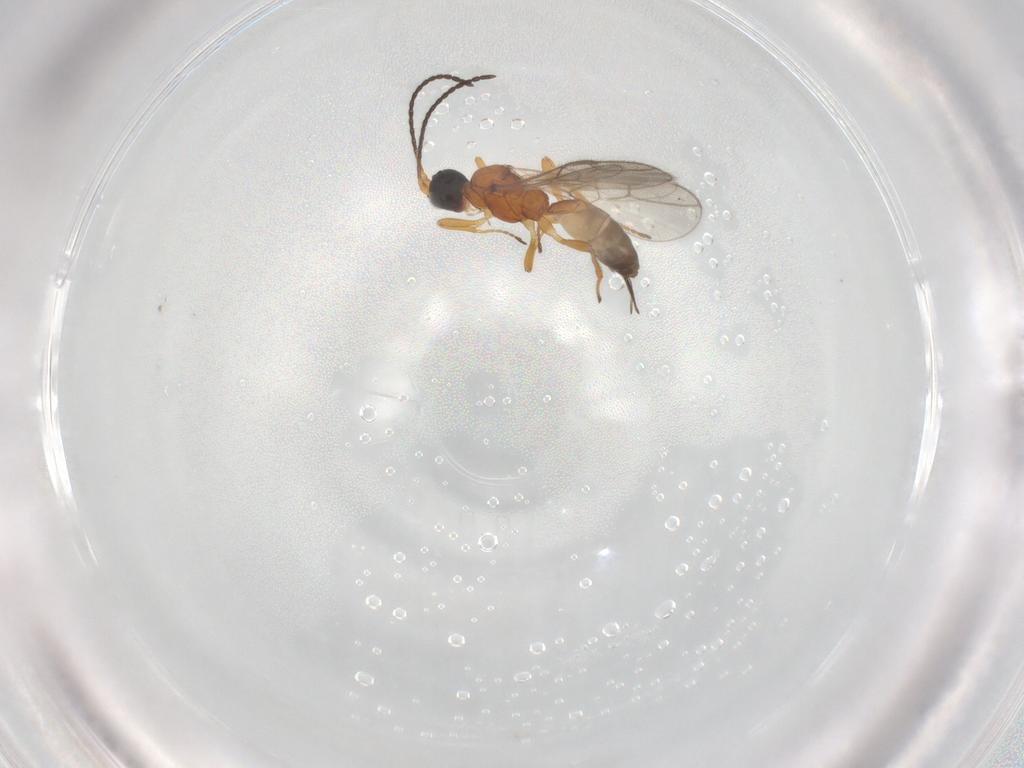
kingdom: Animalia
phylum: Arthropoda
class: Insecta
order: Hymenoptera
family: Braconidae
